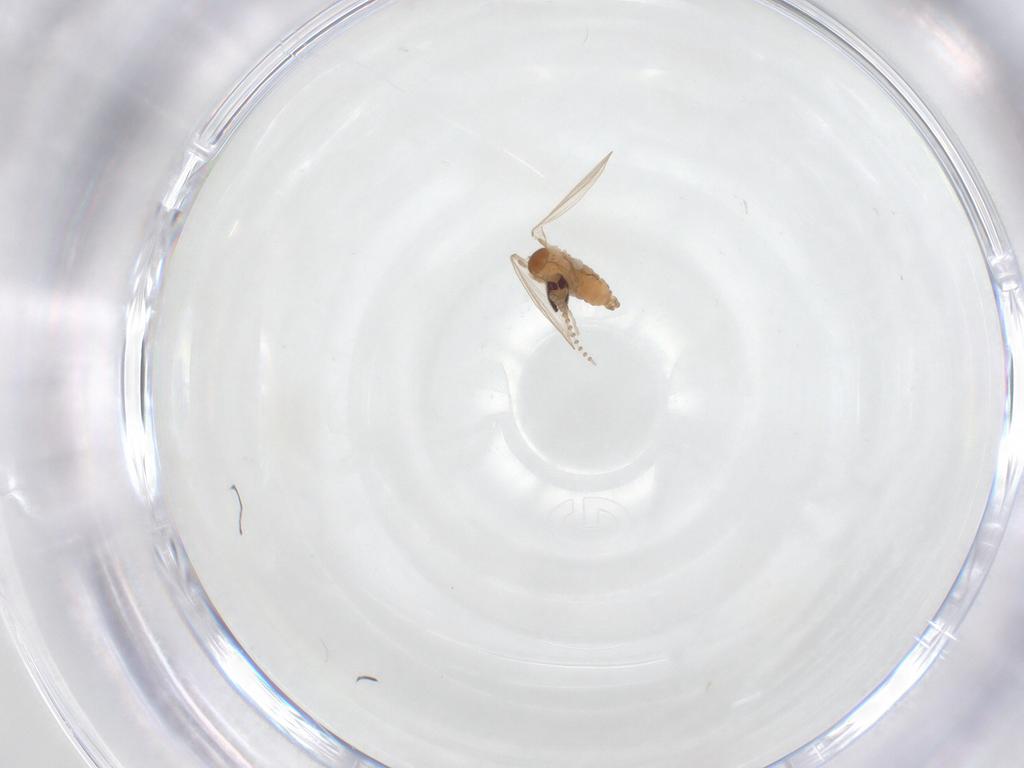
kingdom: Animalia
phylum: Arthropoda
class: Insecta
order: Diptera
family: Psychodidae
